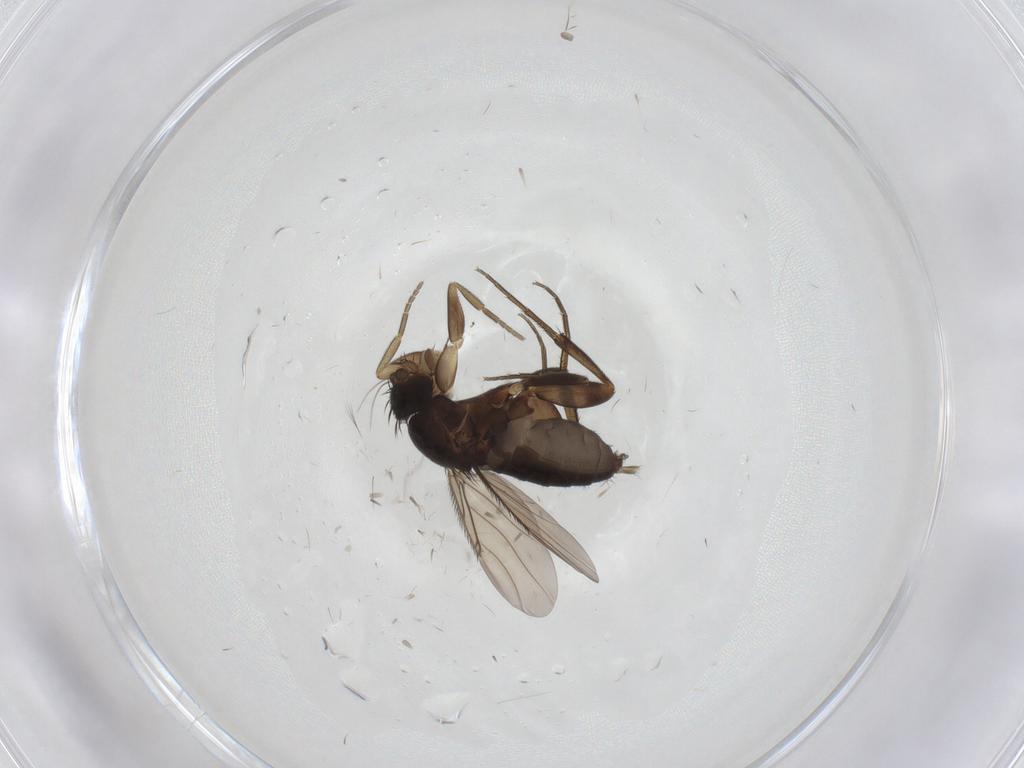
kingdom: Animalia
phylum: Arthropoda
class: Insecta
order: Diptera
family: Phoridae
